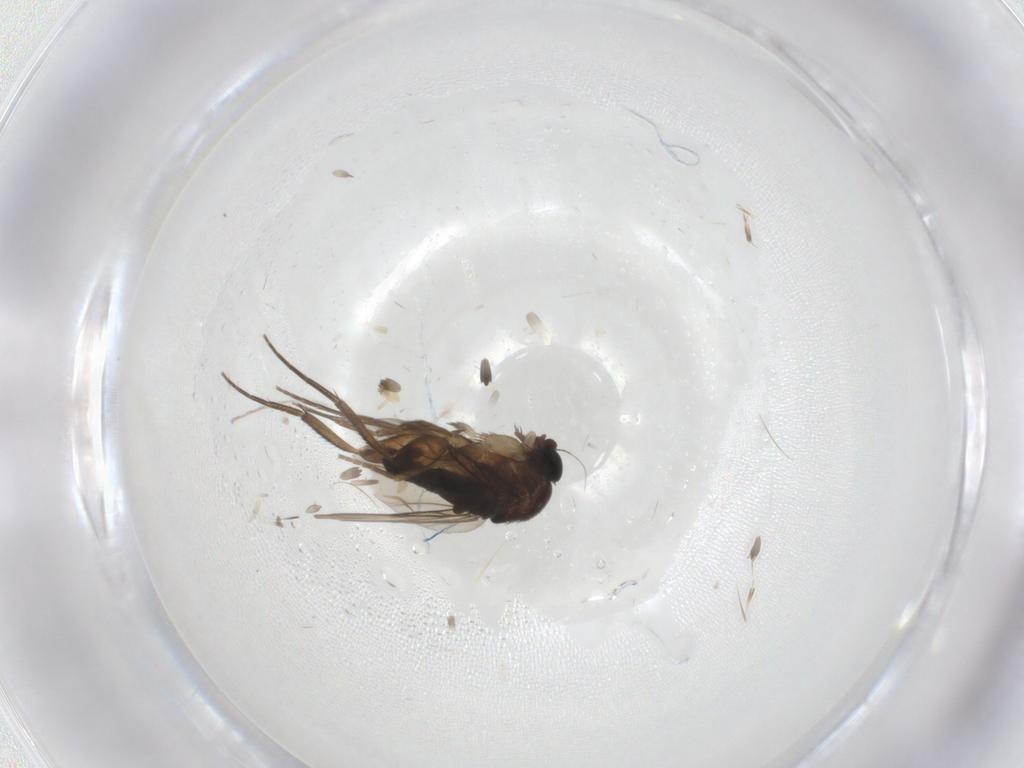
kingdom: Animalia
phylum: Arthropoda
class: Insecta
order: Diptera
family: Phoridae
